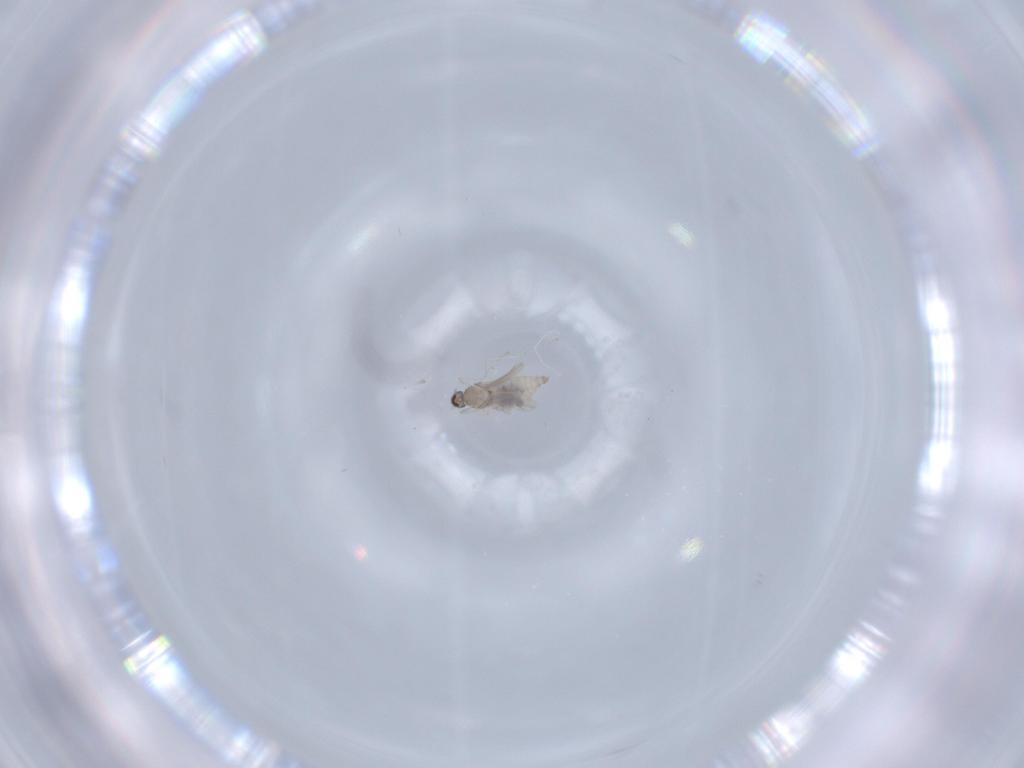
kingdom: Animalia
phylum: Arthropoda
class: Insecta
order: Diptera
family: Cecidomyiidae
